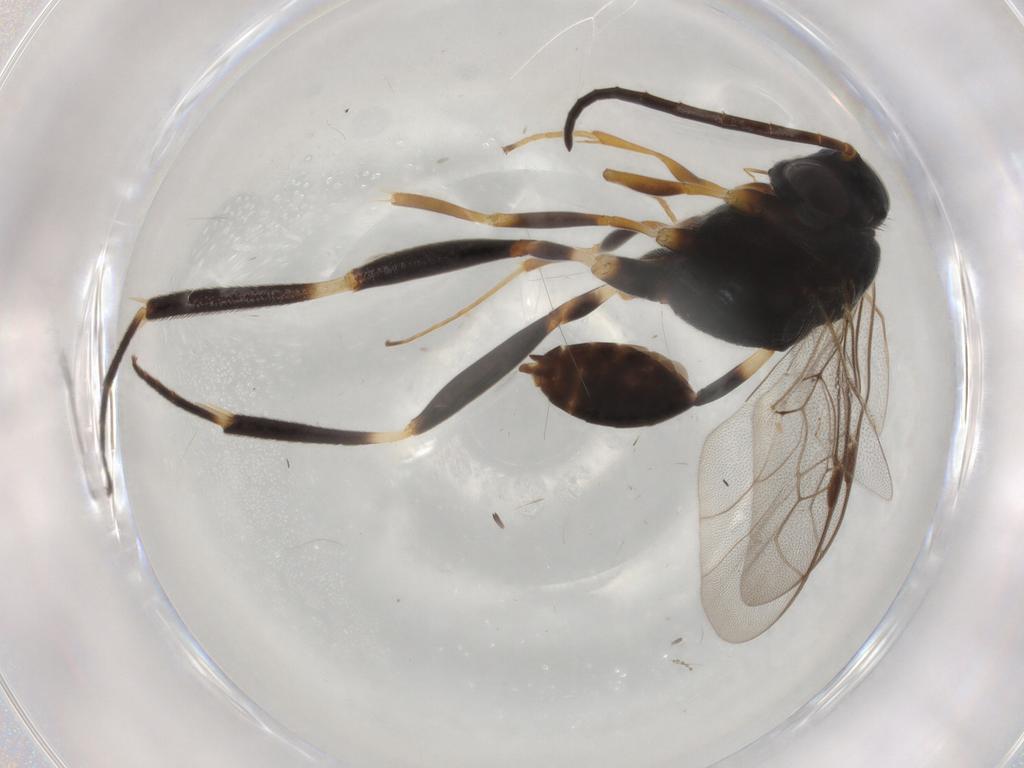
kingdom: Animalia
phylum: Arthropoda
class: Insecta
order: Hymenoptera
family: Evaniidae
